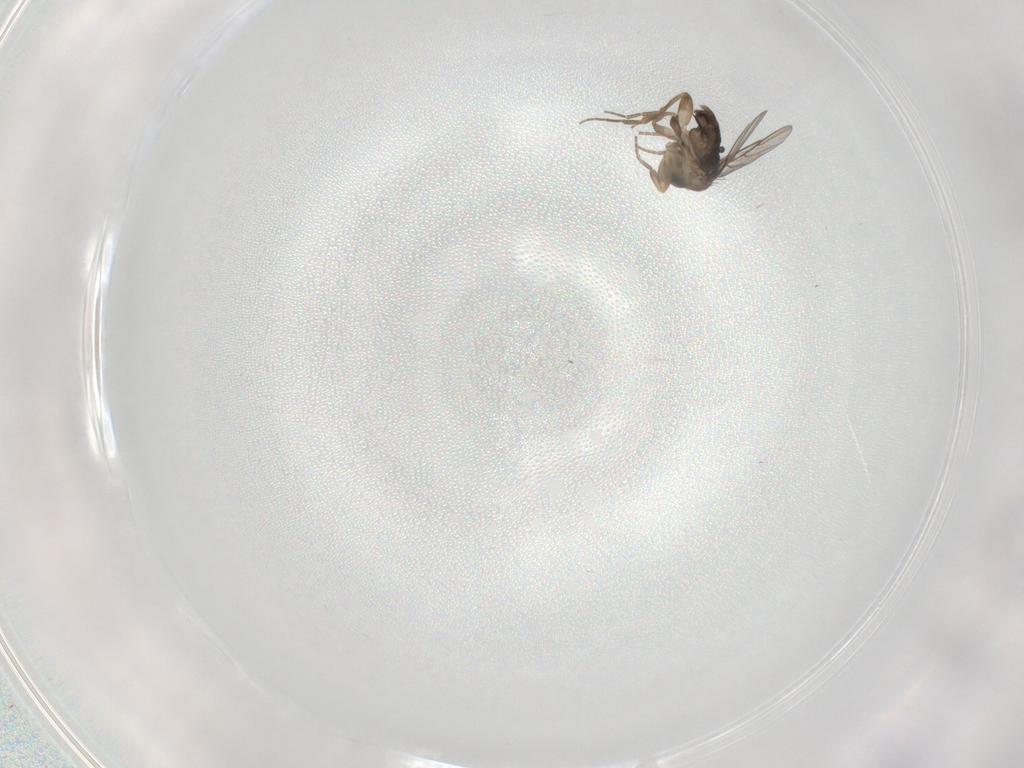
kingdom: Animalia
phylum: Arthropoda
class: Insecta
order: Diptera
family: Phoridae
